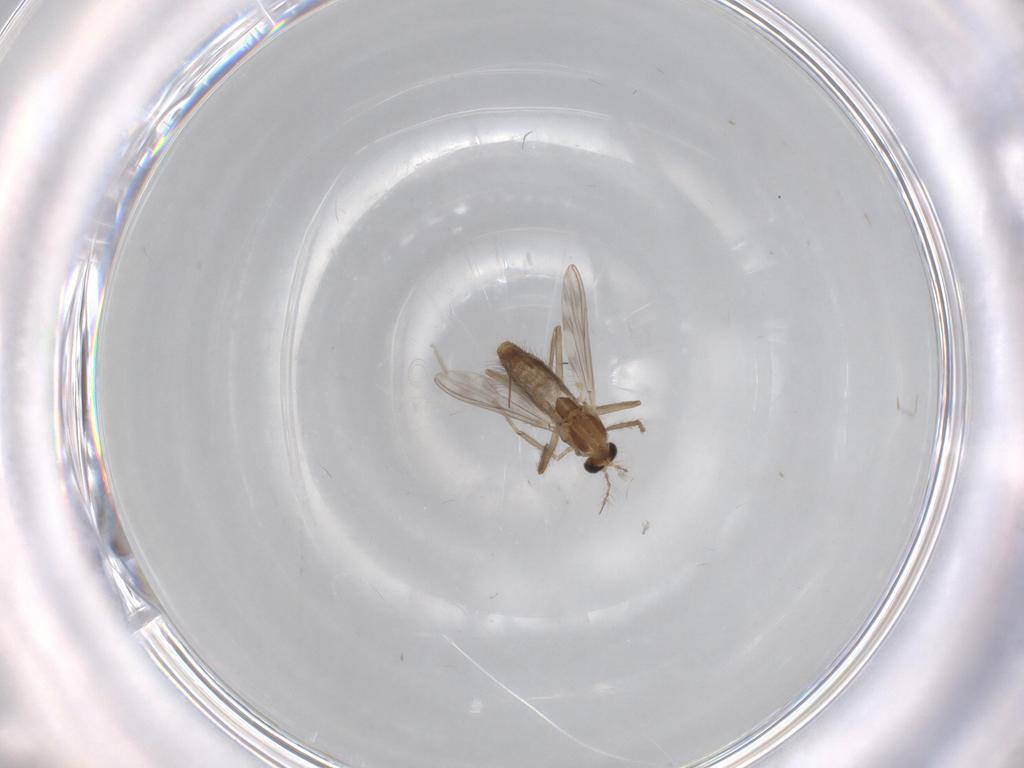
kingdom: Animalia
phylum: Arthropoda
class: Insecta
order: Diptera
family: Chironomidae
